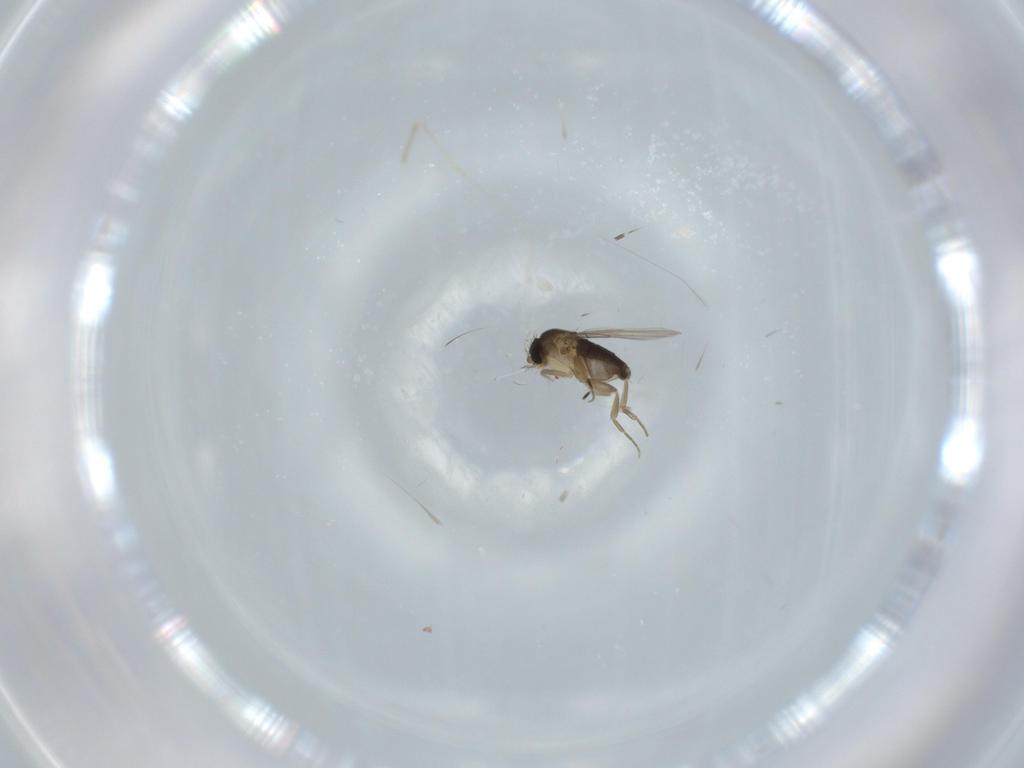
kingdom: Animalia
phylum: Arthropoda
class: Insecta
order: Diptera
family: Phoridae
